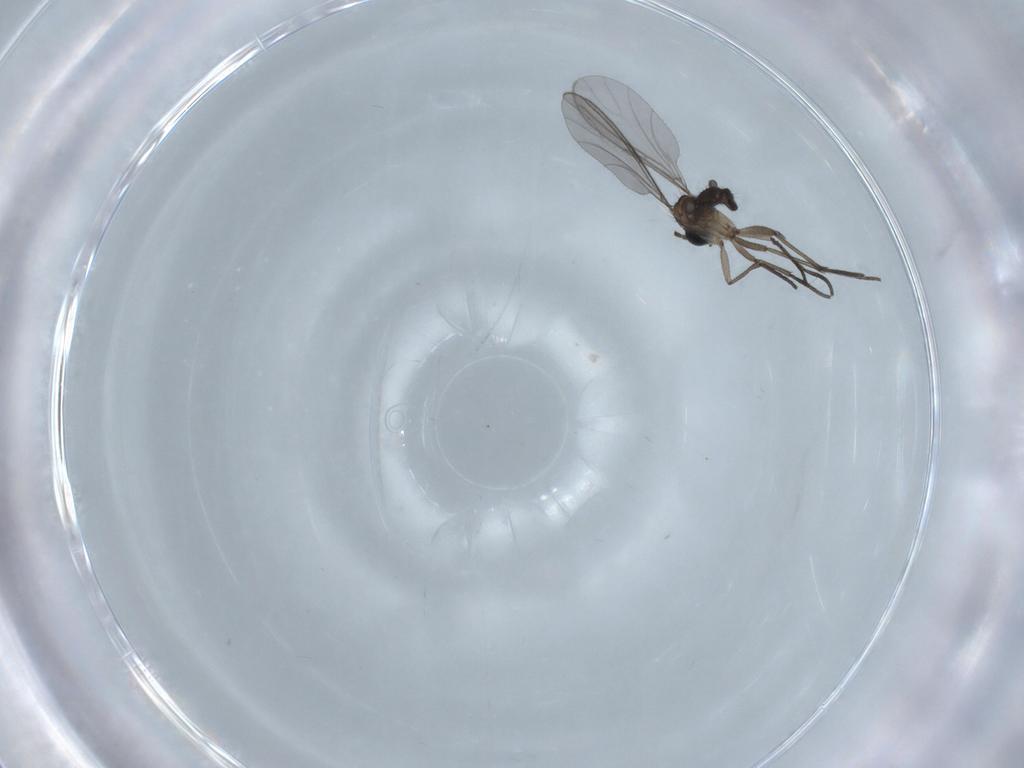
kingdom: Animalia
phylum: Arthropoda
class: Insecta
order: Diptera
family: Sciaridae
